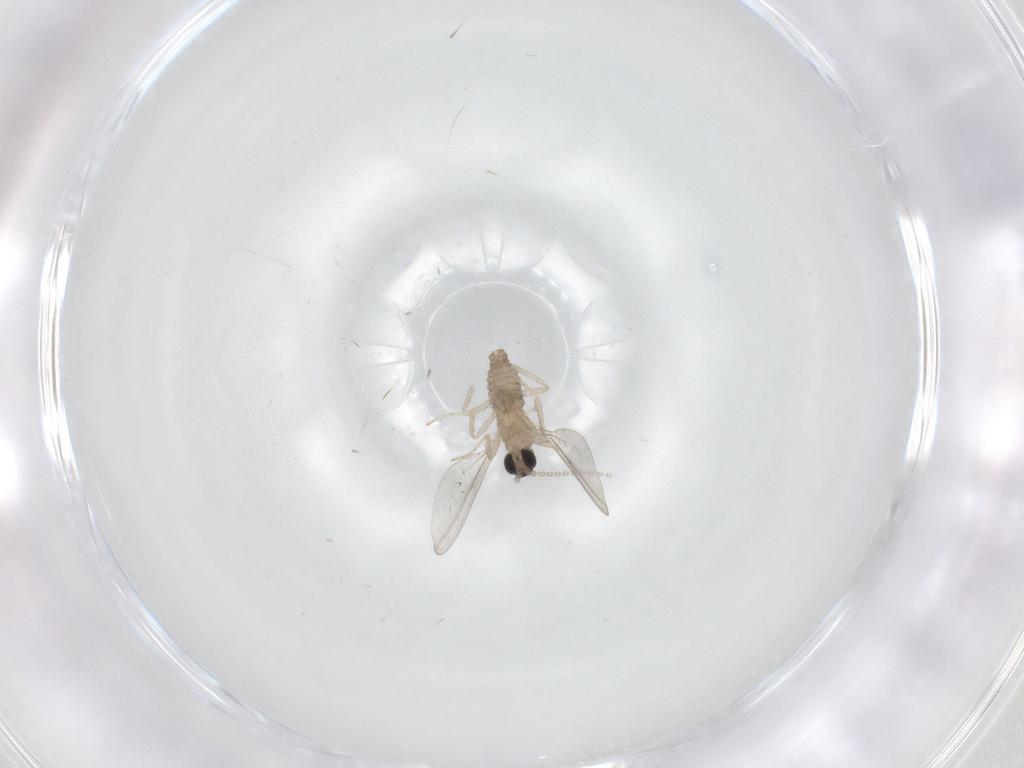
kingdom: Animalia
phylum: Arthropoda
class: Insecta
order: Diptera
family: Cecidomyiidae
